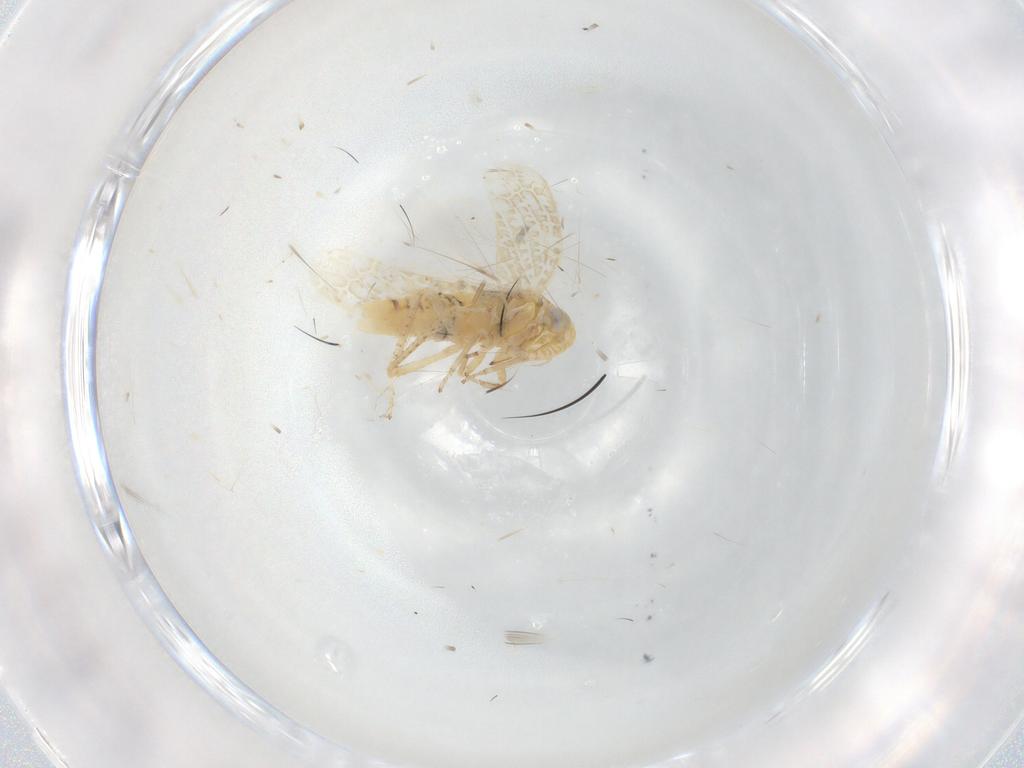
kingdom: Animalia
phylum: Arthropoda
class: Insecta
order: Hemiptera
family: Cicadellidae
